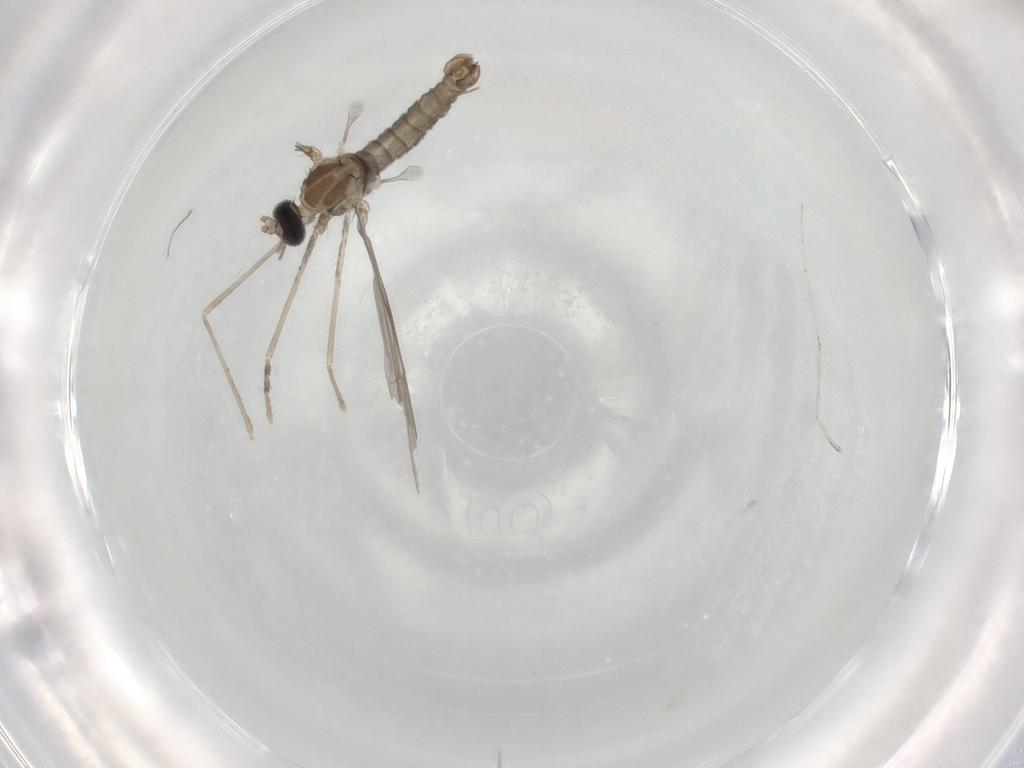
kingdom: Animalia
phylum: Arthropoda
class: Insecta
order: Diptera
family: Cecidomyiidae
